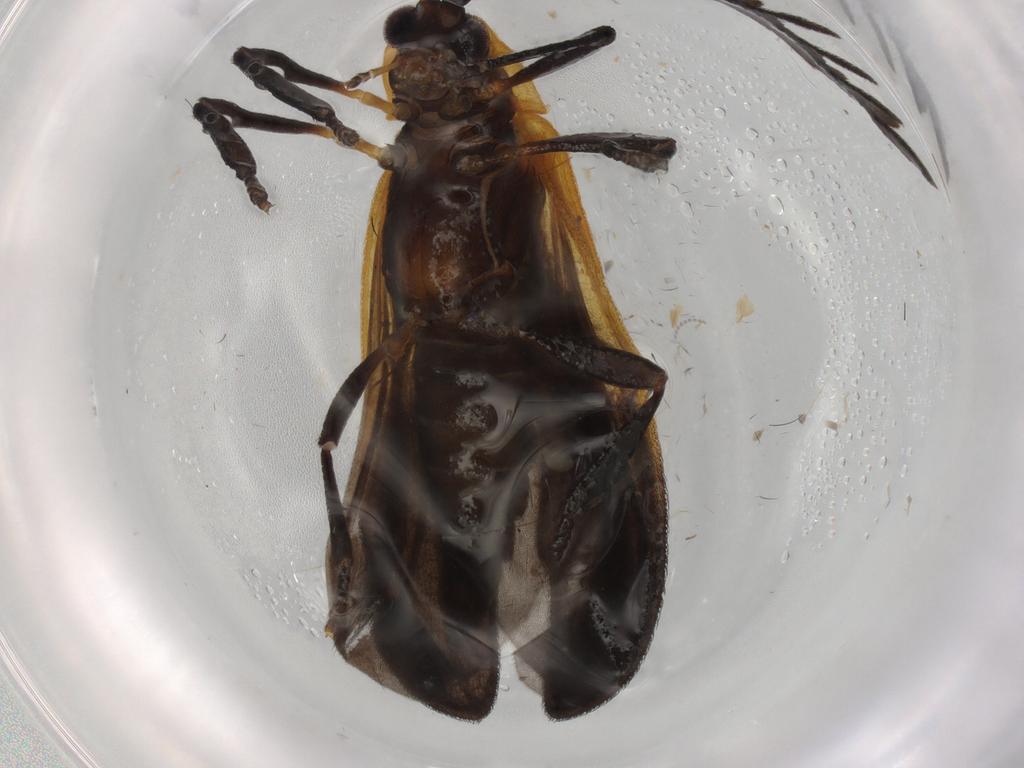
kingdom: Animalia
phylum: Arthropoda
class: Insecta
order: Coleoptera
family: Lycidae
